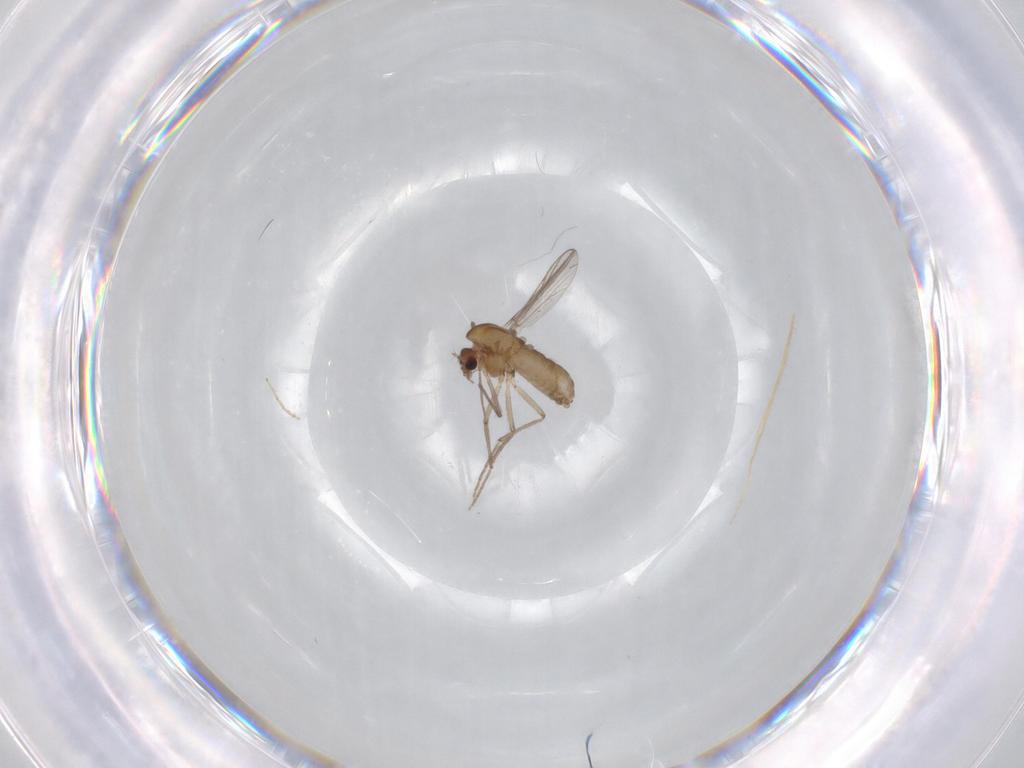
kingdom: Animalia
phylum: Arthropoda
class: Insecta
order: Diptera
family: Chironomidae
